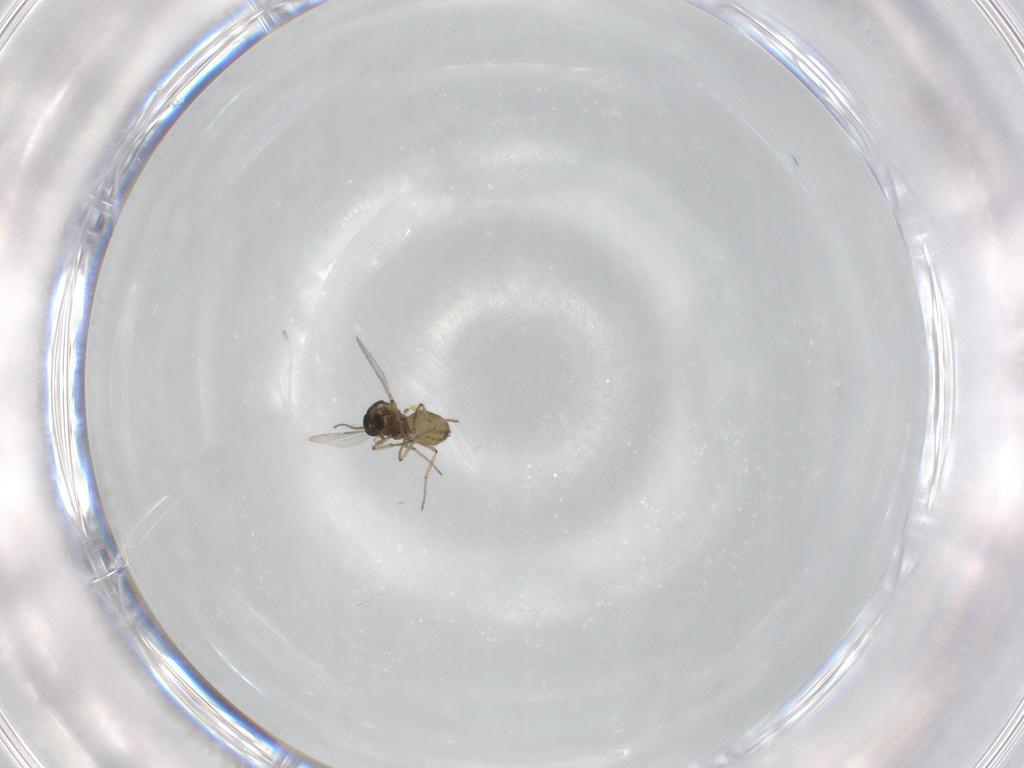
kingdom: Animalia
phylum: Arthropoda
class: Insecta
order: Diptera
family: Ceratopogonidae
